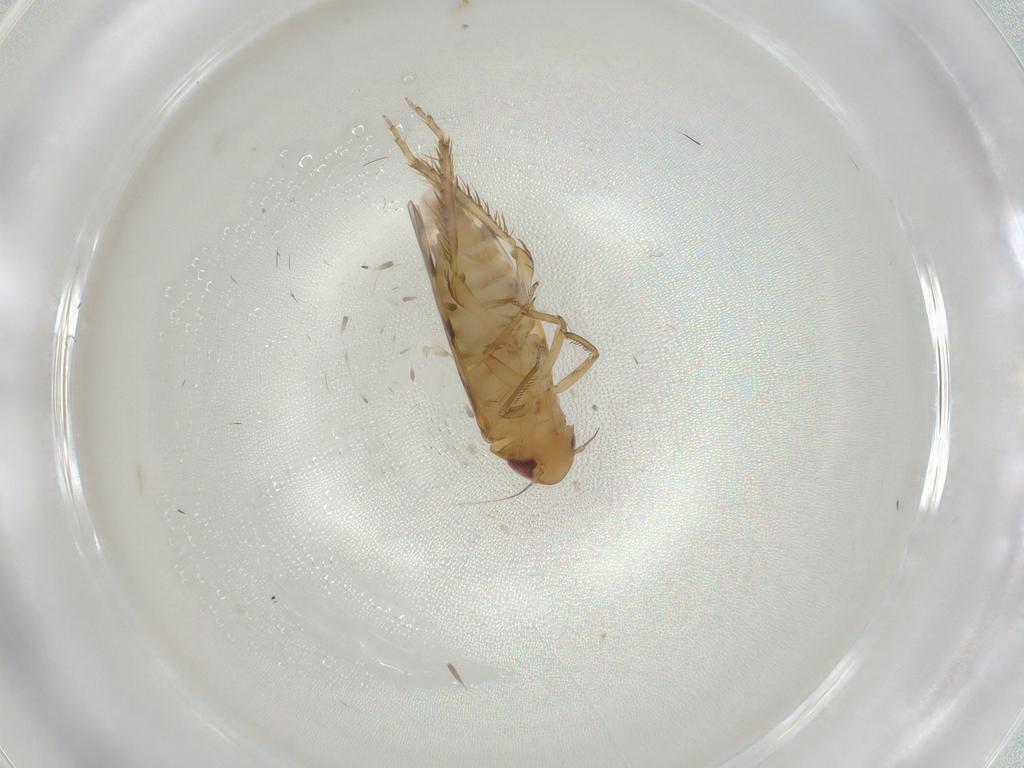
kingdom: Animalia
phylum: Arthropoda
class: Insecta
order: Hemiptera
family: Cicadellidae
